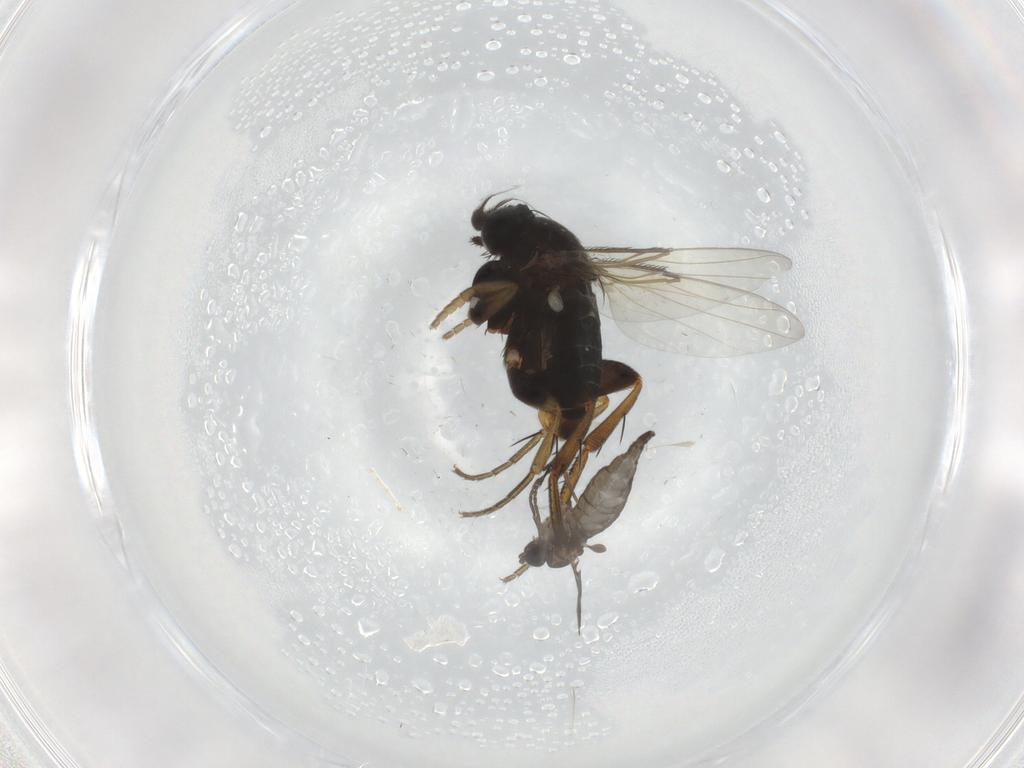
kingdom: Animalia
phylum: Arthropoda
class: Insecta
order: Diptera
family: Phoridae
